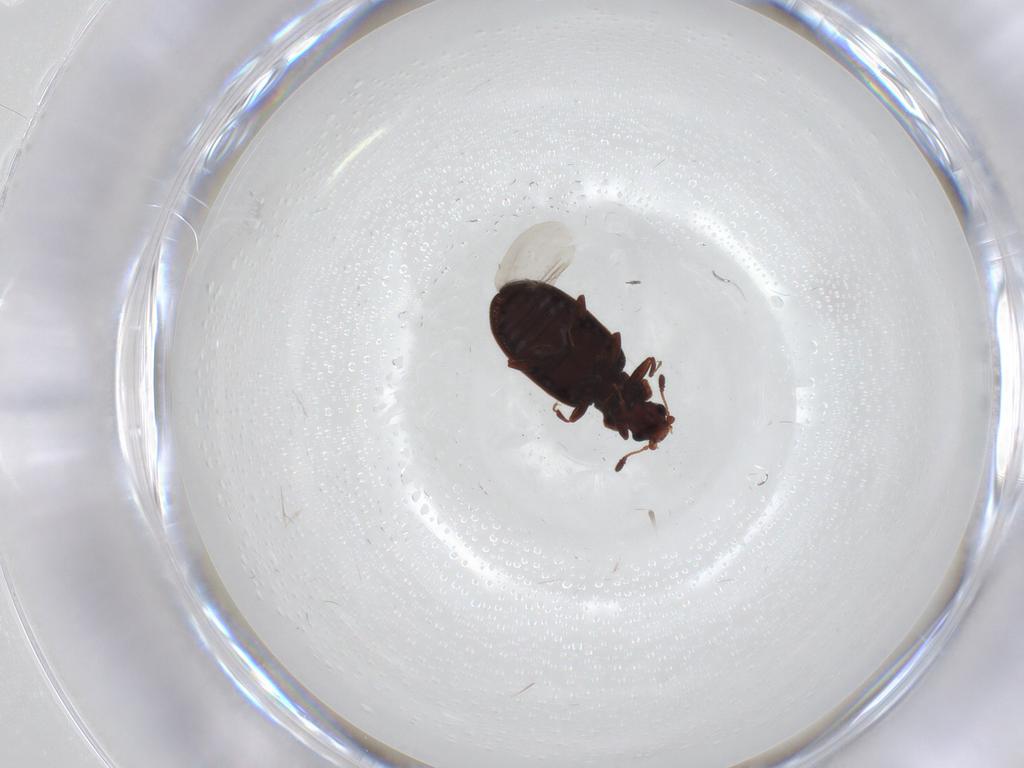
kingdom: Animalia
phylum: Arthropoda
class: Insecta
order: Coleoptera
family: Latridiidae
